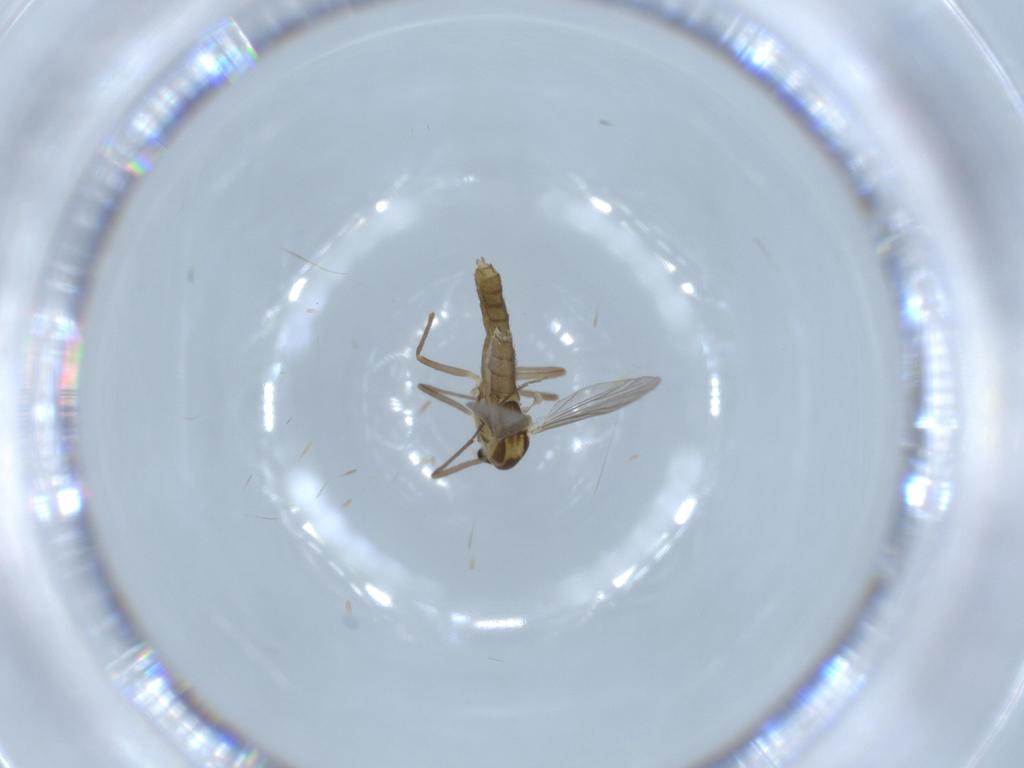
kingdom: Animalia
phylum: Arthropoda
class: Insecta
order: Diptera
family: Chironomidae
